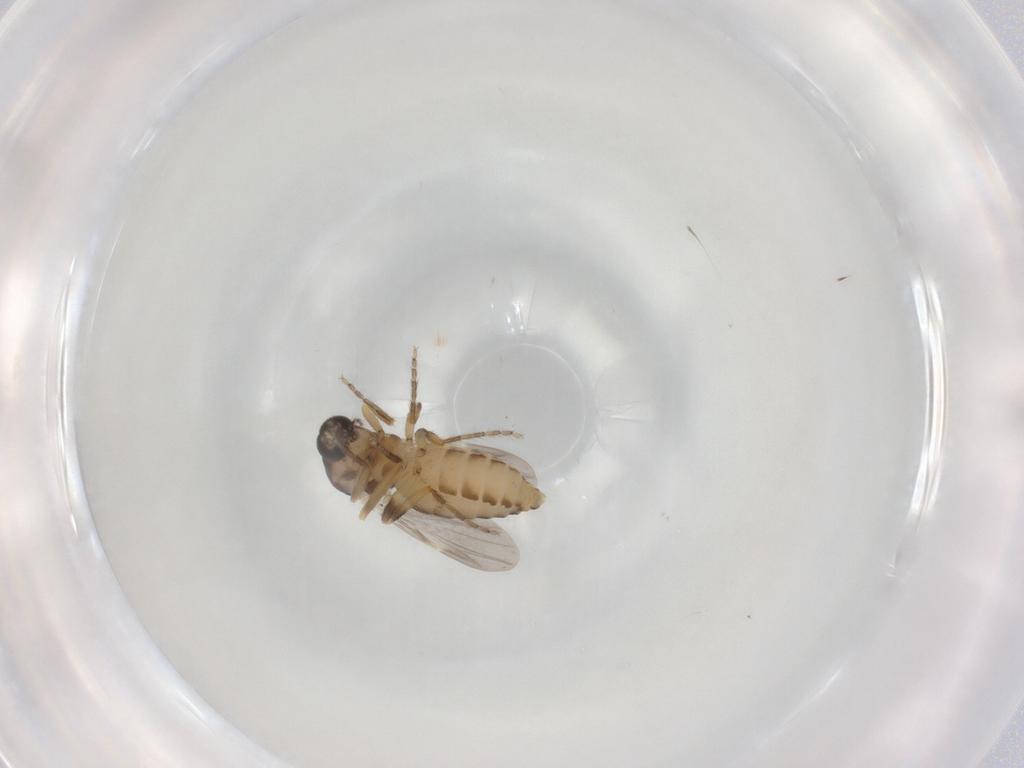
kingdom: Animalia
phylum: Arthropoda
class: Insecta
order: Diptera
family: Ceratopogonidae
